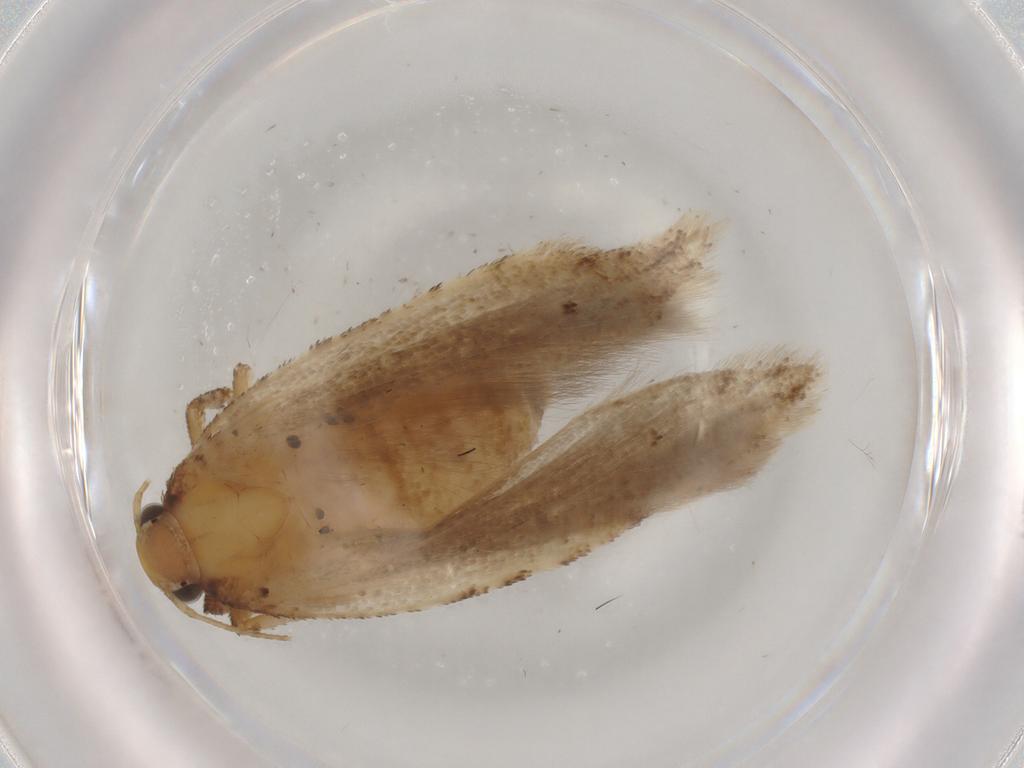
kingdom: Animalia
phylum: Arthropoda
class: Insecta
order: Lepidoptera
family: Gelechiidae
